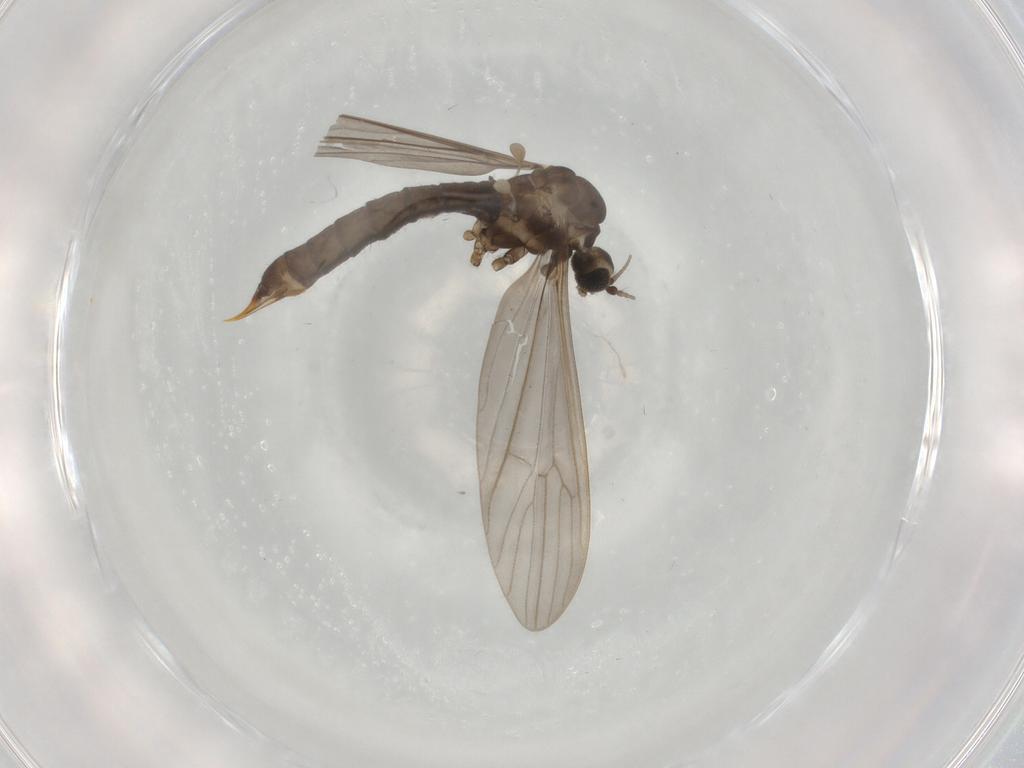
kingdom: Animalia
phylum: Arthropoda
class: Insecta
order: Diptera
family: Limoniidae
